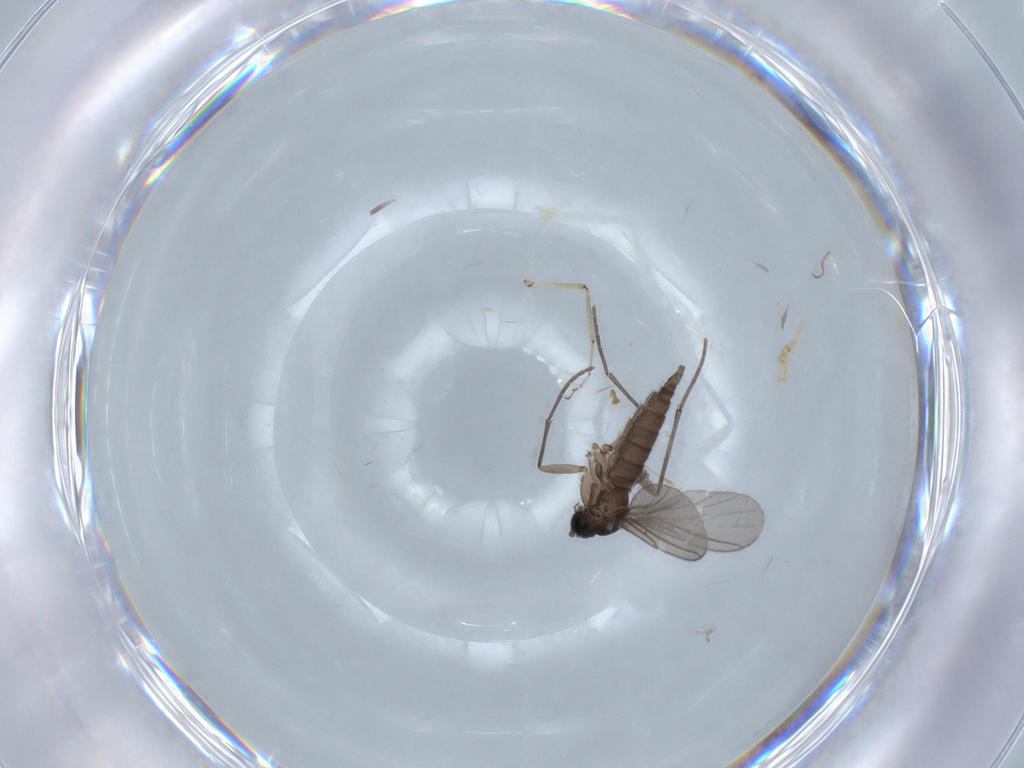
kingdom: Animalia
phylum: Arthropoda
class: Insecta
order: Diptera
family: Sciaridae
